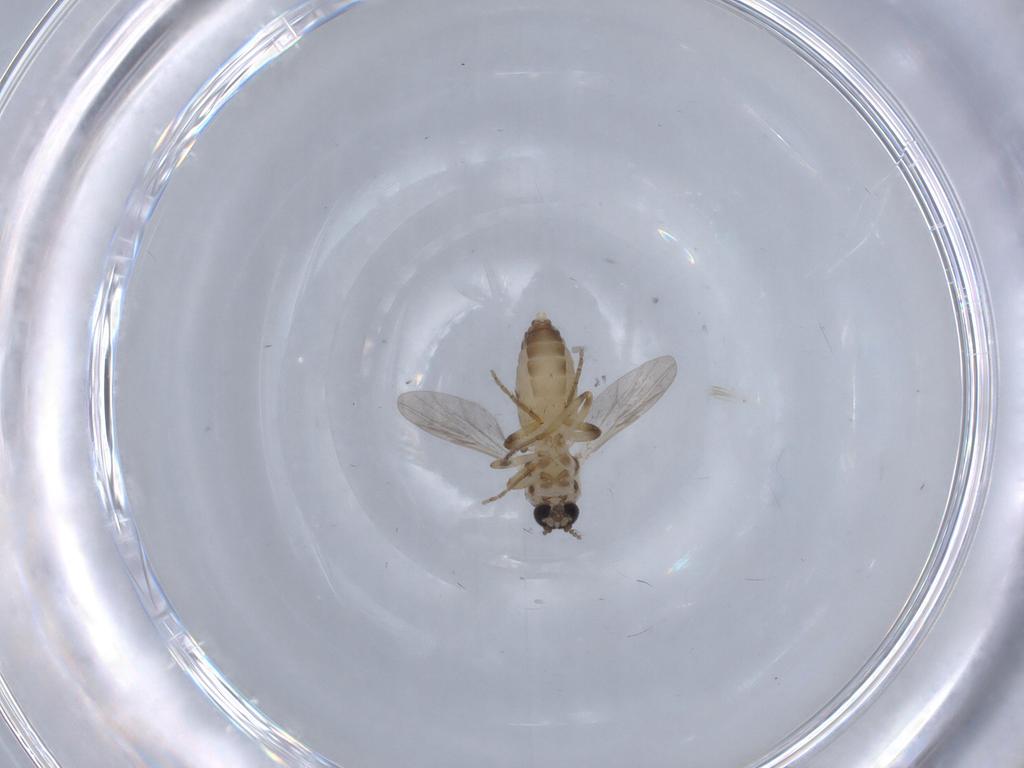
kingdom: Animalia
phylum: Arthropoda
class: Insecta
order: Diptera
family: Ceratopogonidae
